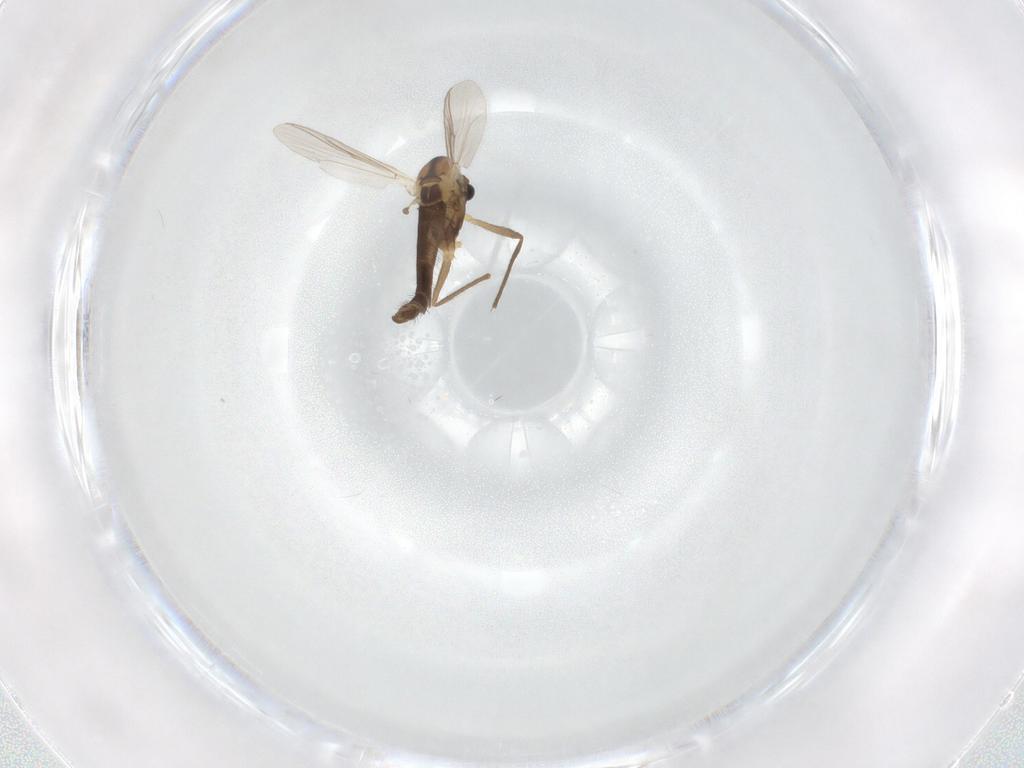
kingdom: Animalia
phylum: Arthropoda
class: Insecta
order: Diptera
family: Chironomidae
